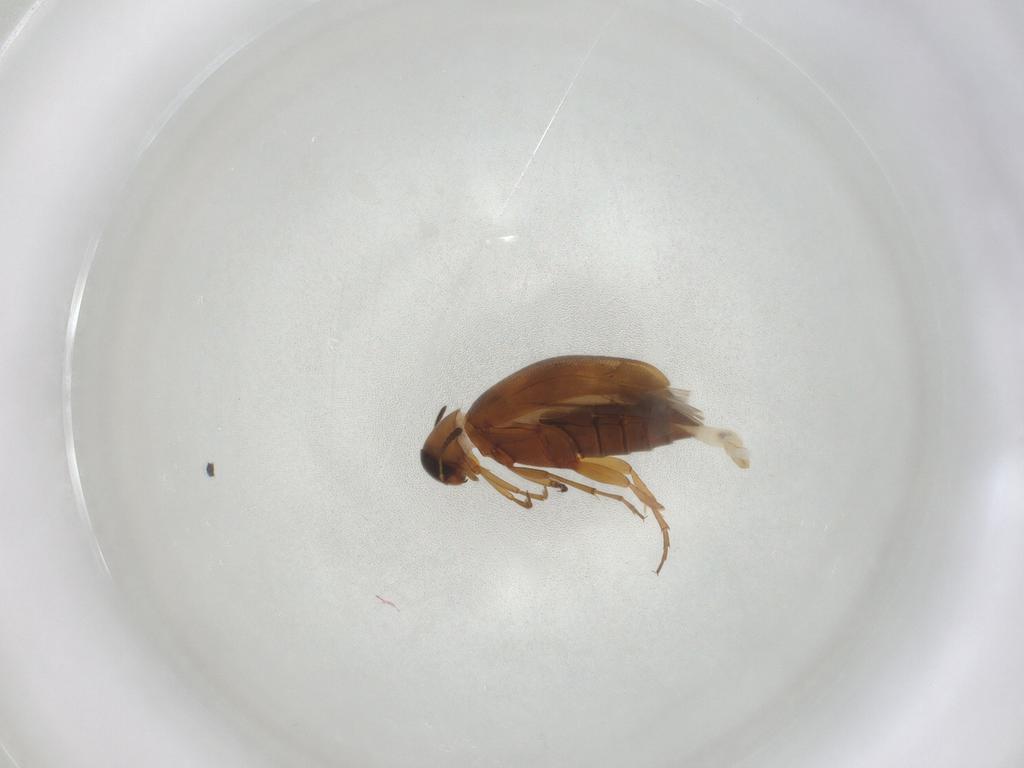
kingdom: Animalia
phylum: Arthropoda
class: Insecta
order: Coleoptera
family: Scraptiidae
